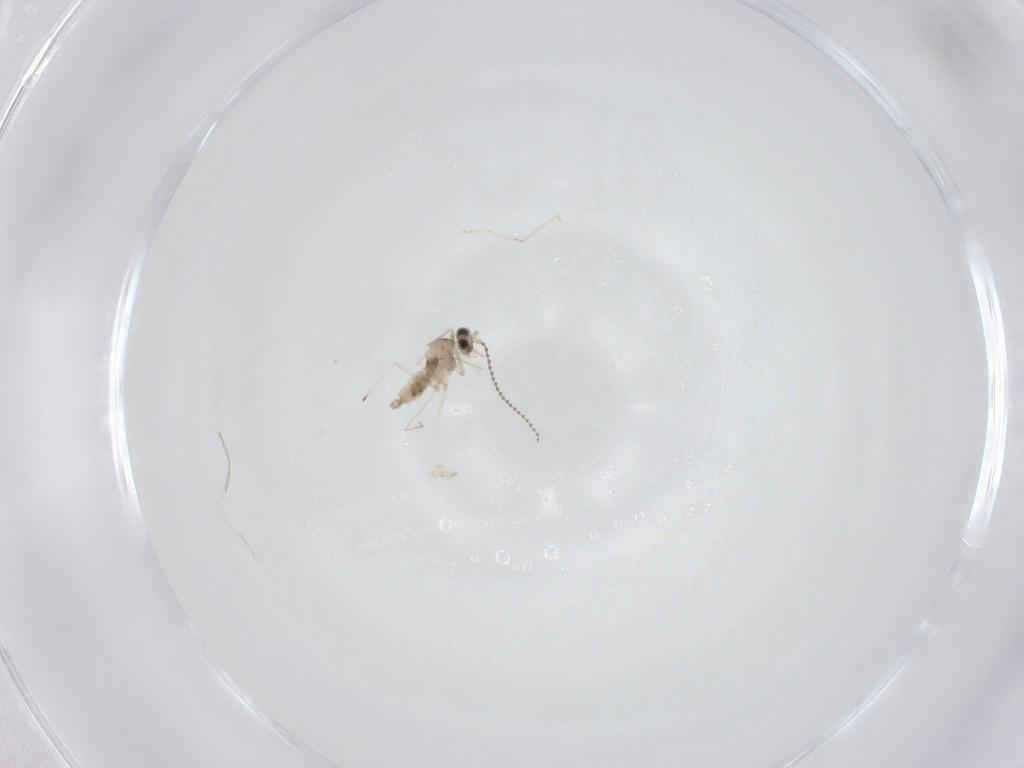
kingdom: Animalia
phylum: Arthropoda
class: Insecta
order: Diptera
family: Cecidomyiidae
